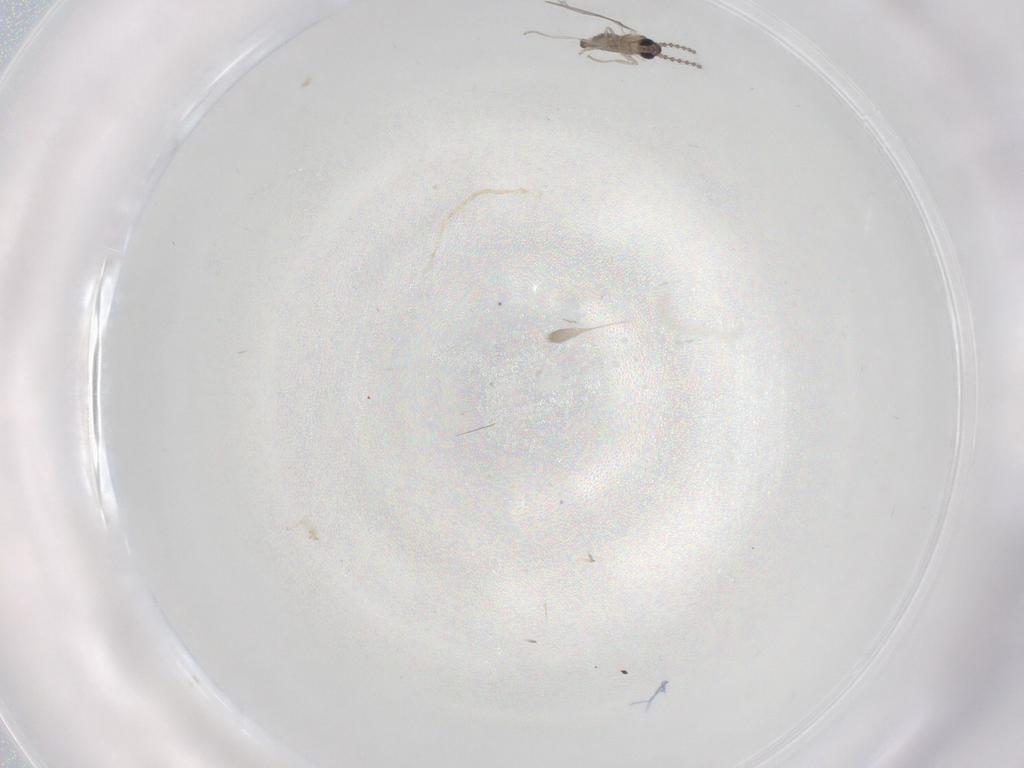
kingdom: Animalia
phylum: Arthropoda
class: Insecta
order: Diptera
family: Cecidomyiidae
